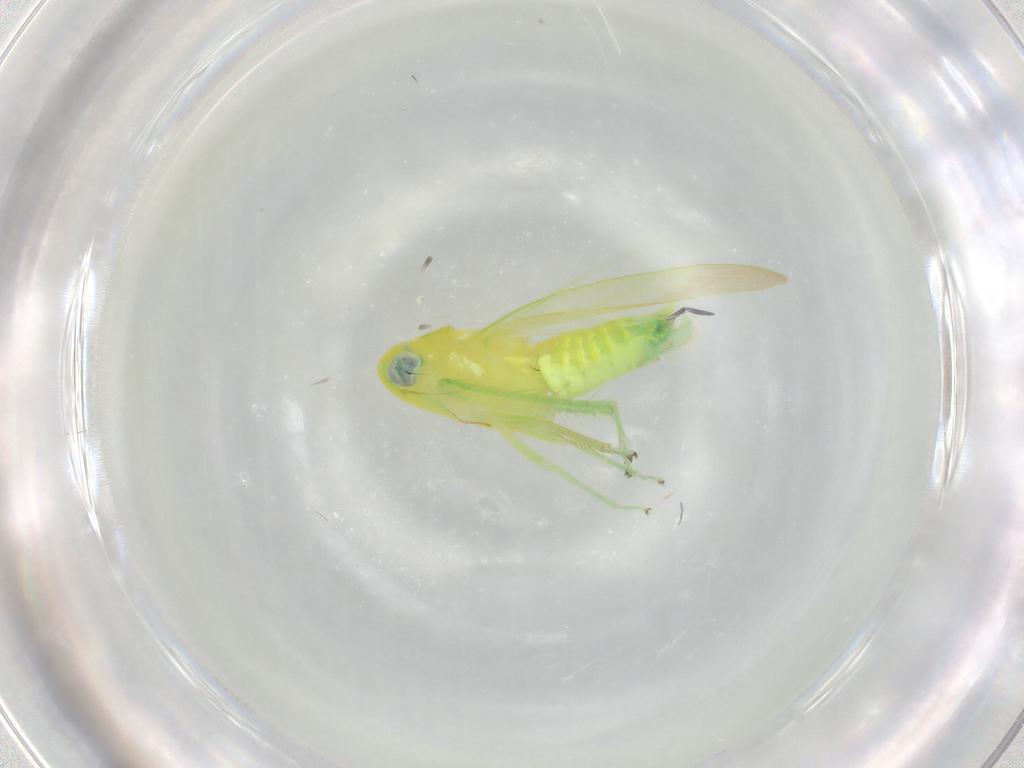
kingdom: Animalia
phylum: Arthropoda
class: Insecta
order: Hemiptera
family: Cicadellidae
